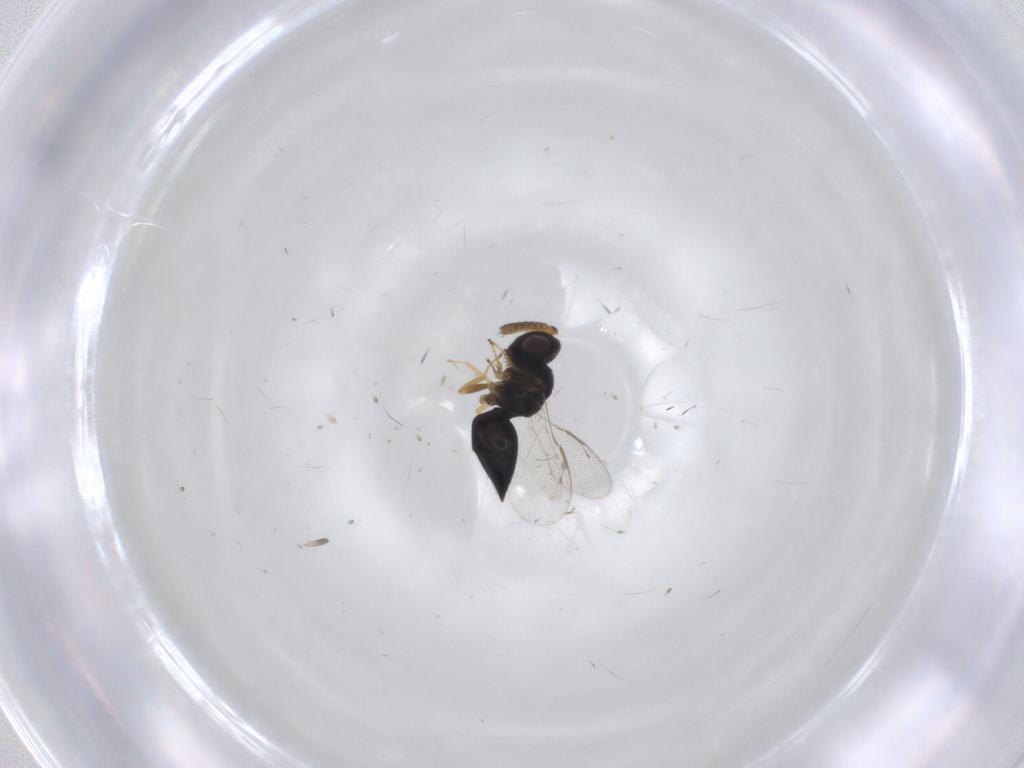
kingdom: Animalia
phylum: Arthropoda
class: Insecta
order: Hymenoptera
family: Pteromalidae
